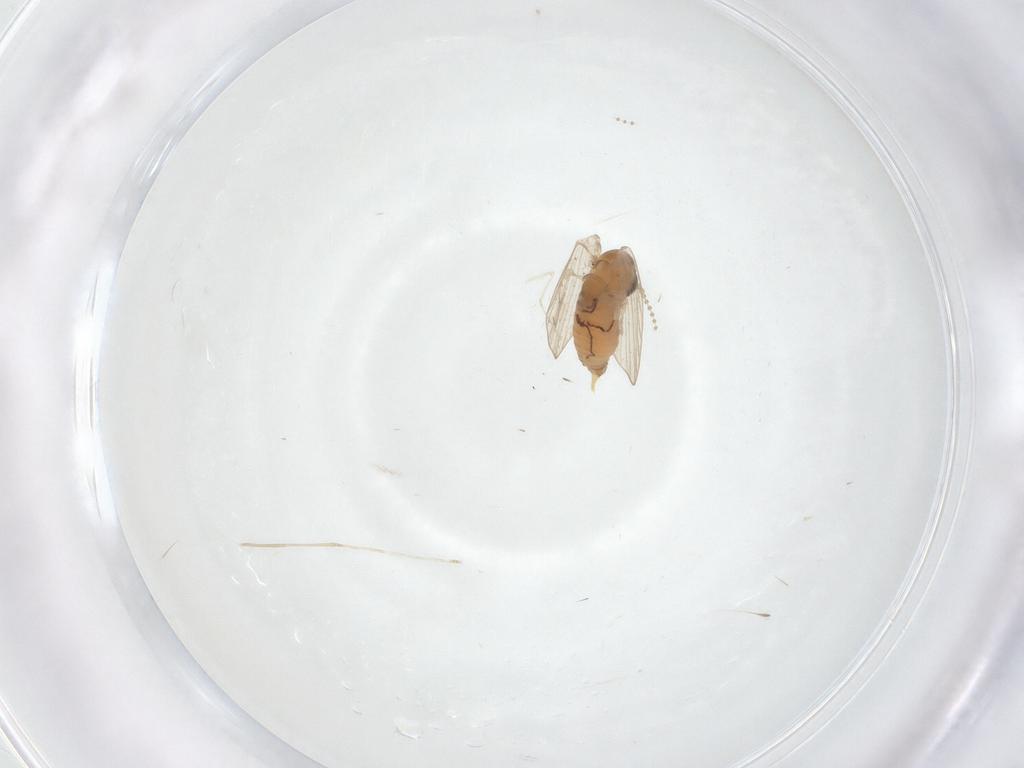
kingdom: Animalia
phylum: Arthropoda
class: Insecta
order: Diptera
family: Cecidomyiidae
